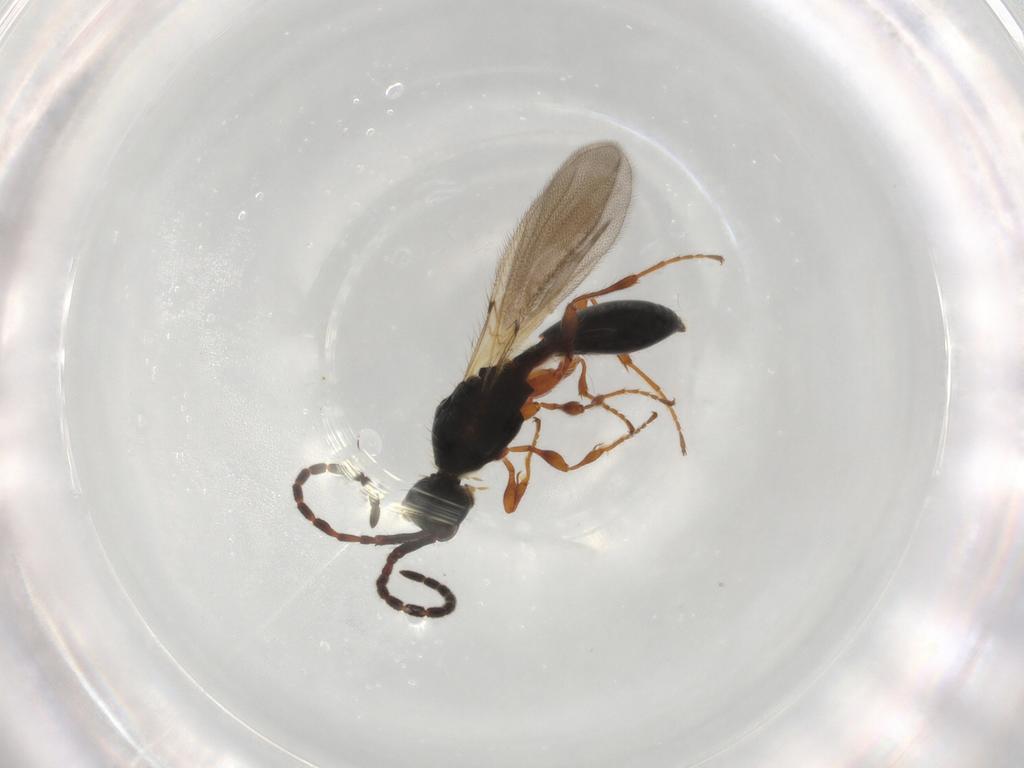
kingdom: Animalia
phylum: Arthropoda
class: Insecta
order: Hymenoptera
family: Diapriidae
